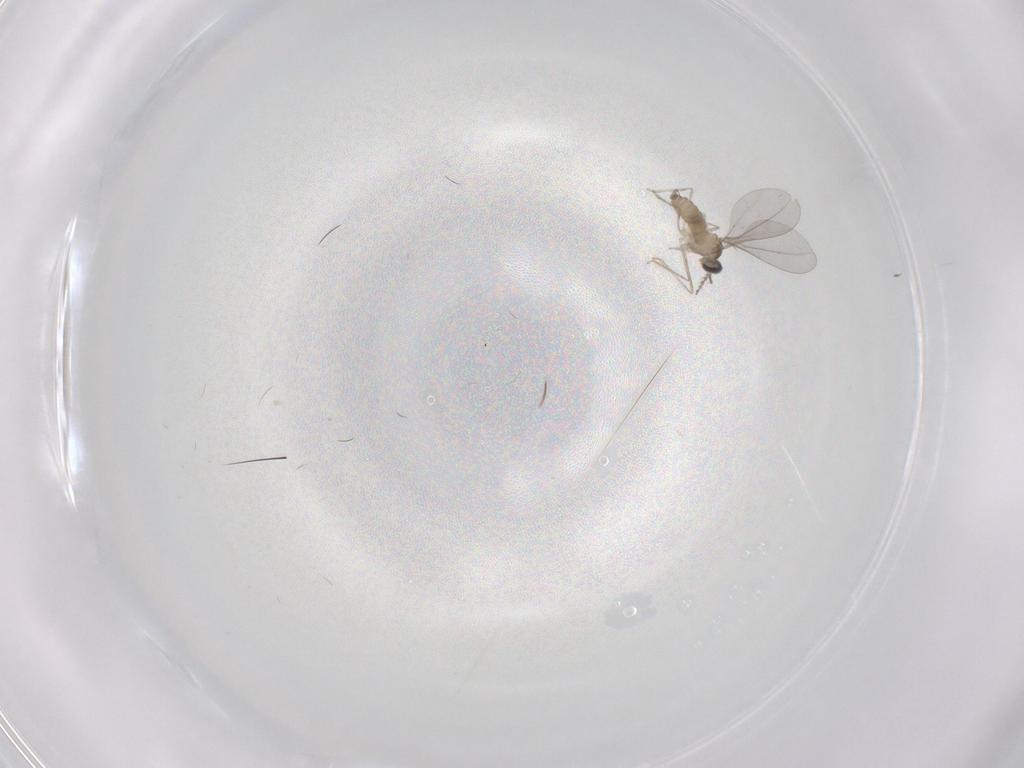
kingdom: Animalia
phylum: Arthropoda
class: Insecta
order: Diptera
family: Cecidomyiidae
